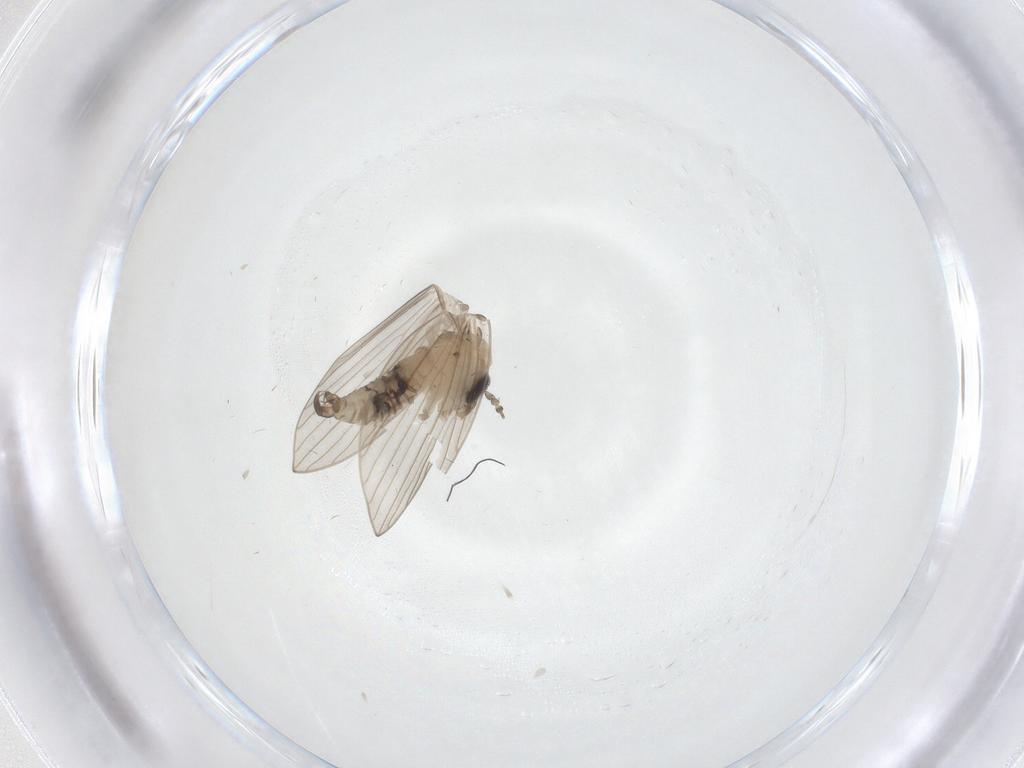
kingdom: Animalia
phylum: Arthropoda
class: Insecta
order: Diptera
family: Psychodidae
